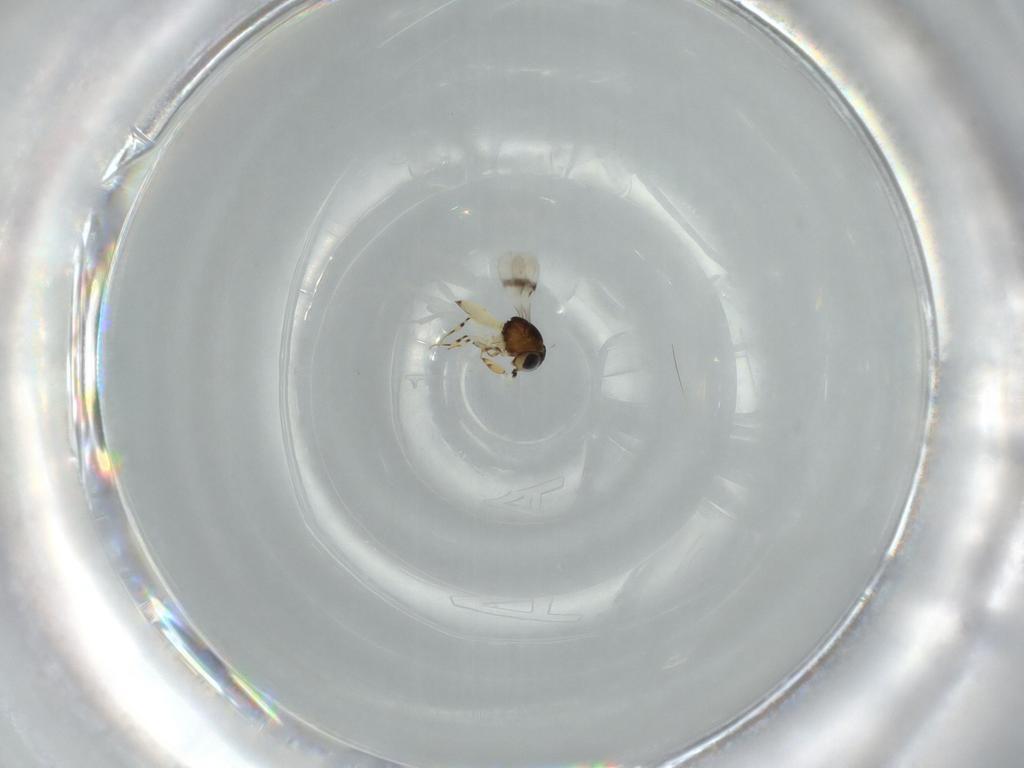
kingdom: Animalia
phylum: Arthropoda
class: Insecta
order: Hymenoptera
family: Scelionidae
